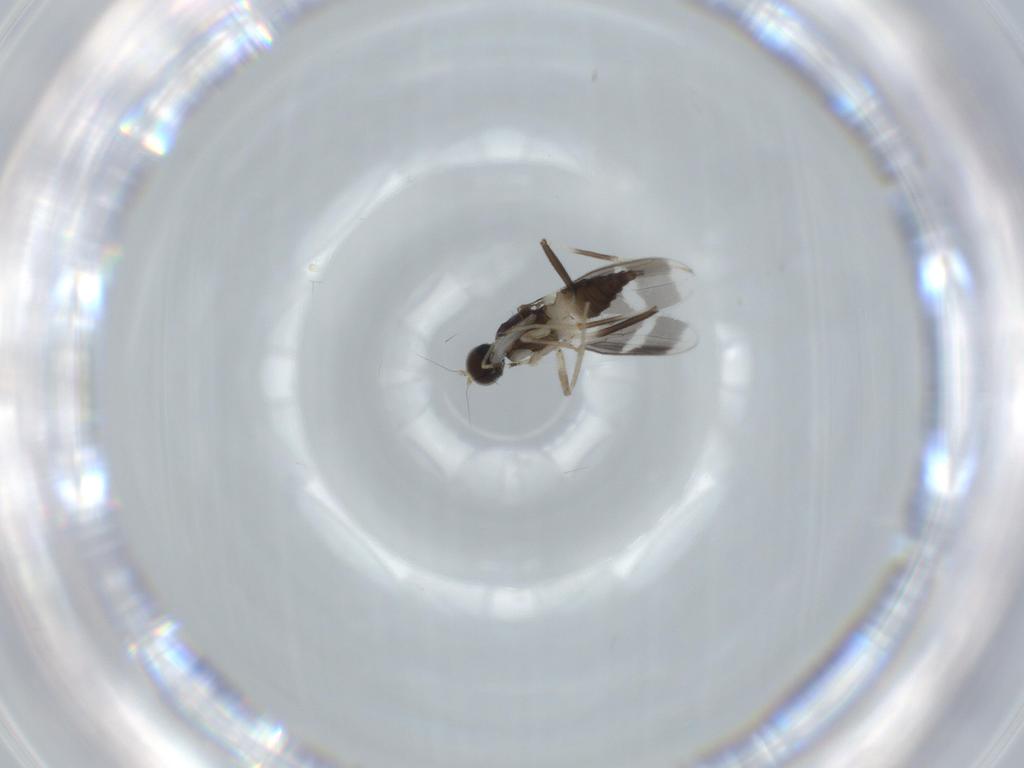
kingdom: Animalia
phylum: Arthropoda
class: Insecta
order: Diptera
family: Hybotidae
